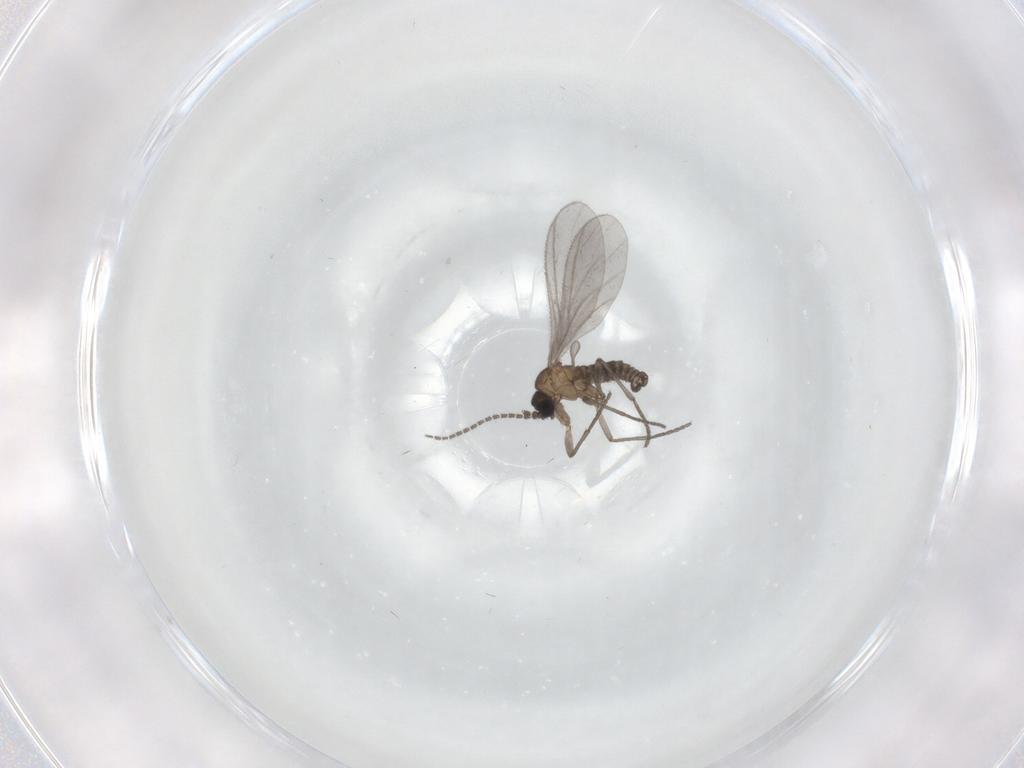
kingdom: Animalia
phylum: Arthropoda
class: Insecta
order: Diptera
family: Sciaridae
